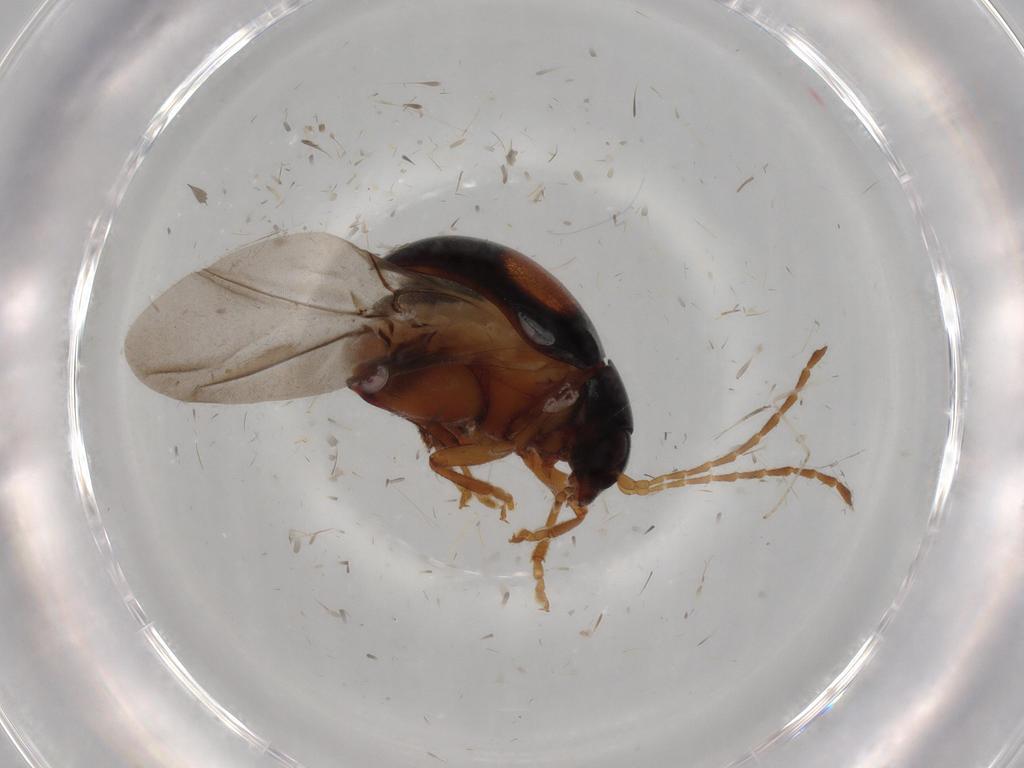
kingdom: Animalia
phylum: Arthropoda
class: Insecta
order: Coleoptera
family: Chrysomelidae
